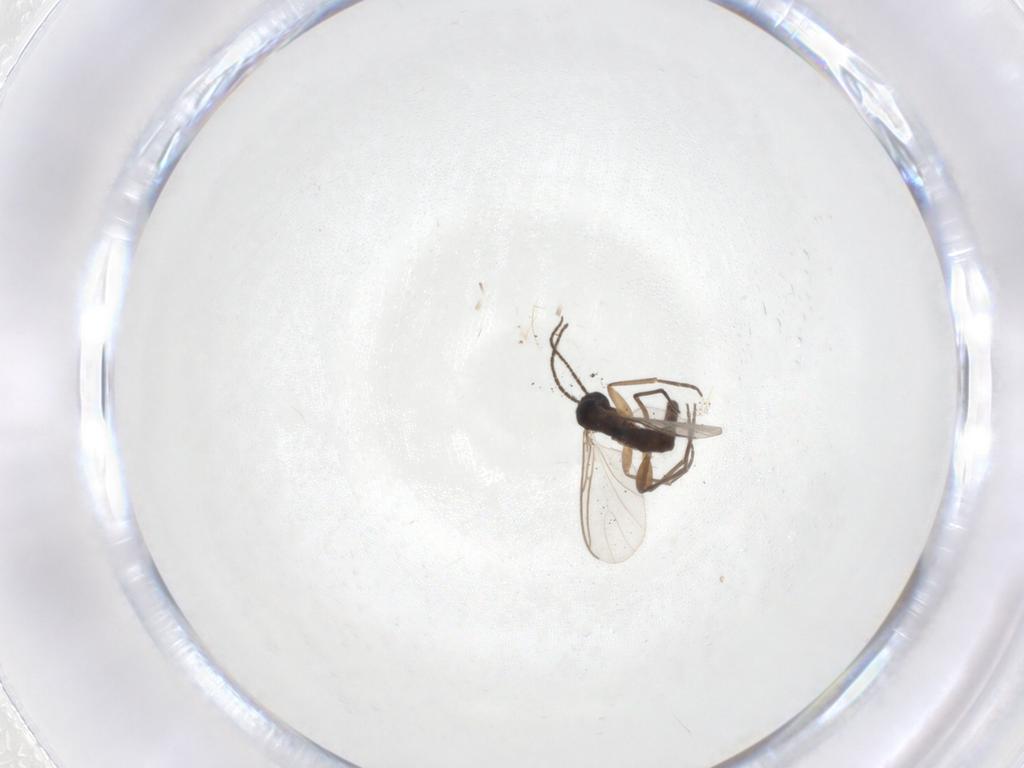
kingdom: Animalia
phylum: Arthropoda
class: Insecta
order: Diptera
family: Sciaridae
